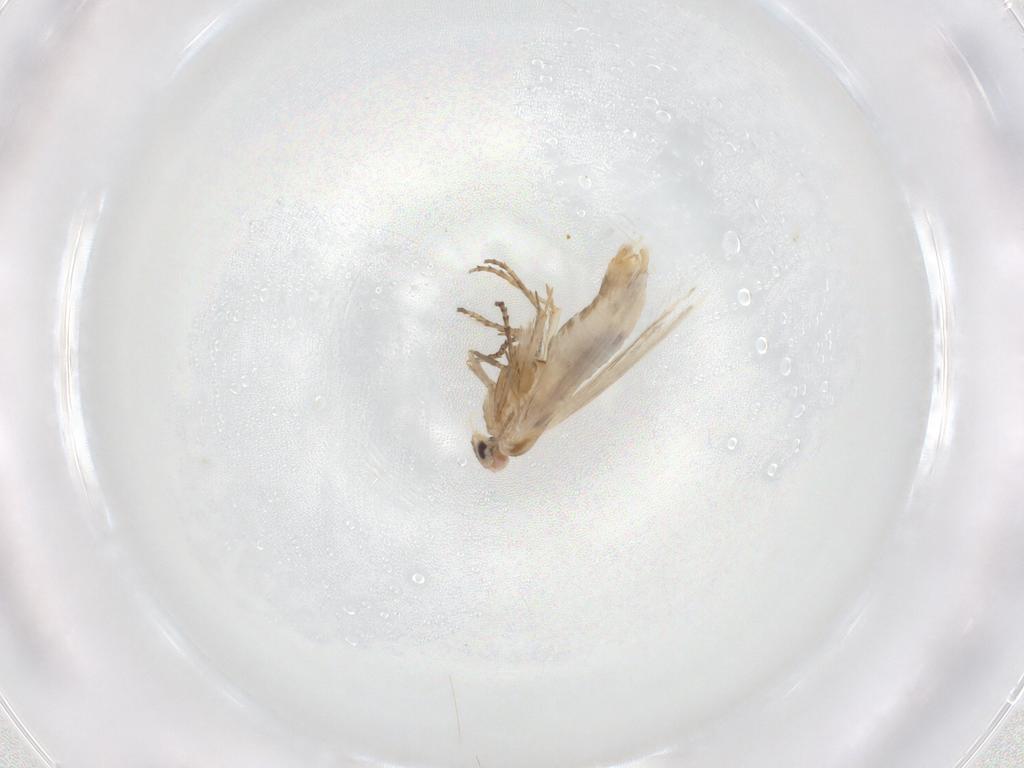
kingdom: Animalia
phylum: Arthropoda
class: Insecta
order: Lepidoptera
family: Bucculatricidae
